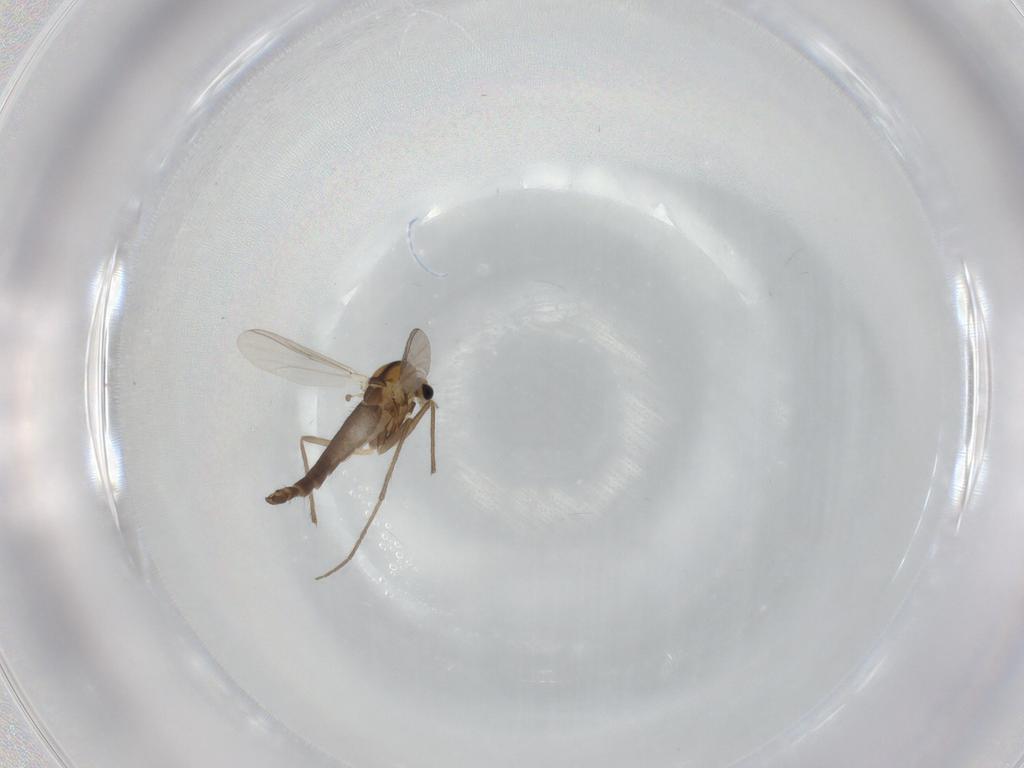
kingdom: Animalia
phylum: Arthropoda
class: Insecta
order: Diptera
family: Chironomidae
